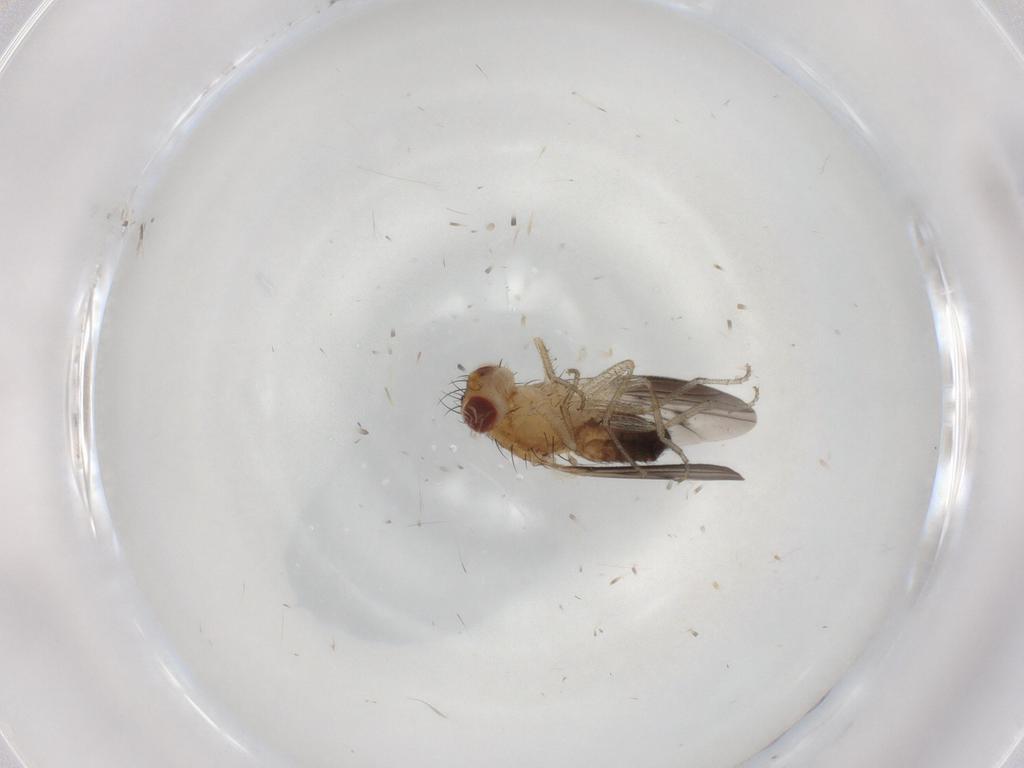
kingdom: Animalia
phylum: Arthropoda
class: Insecta
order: Diptera
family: Heleomyzidae
